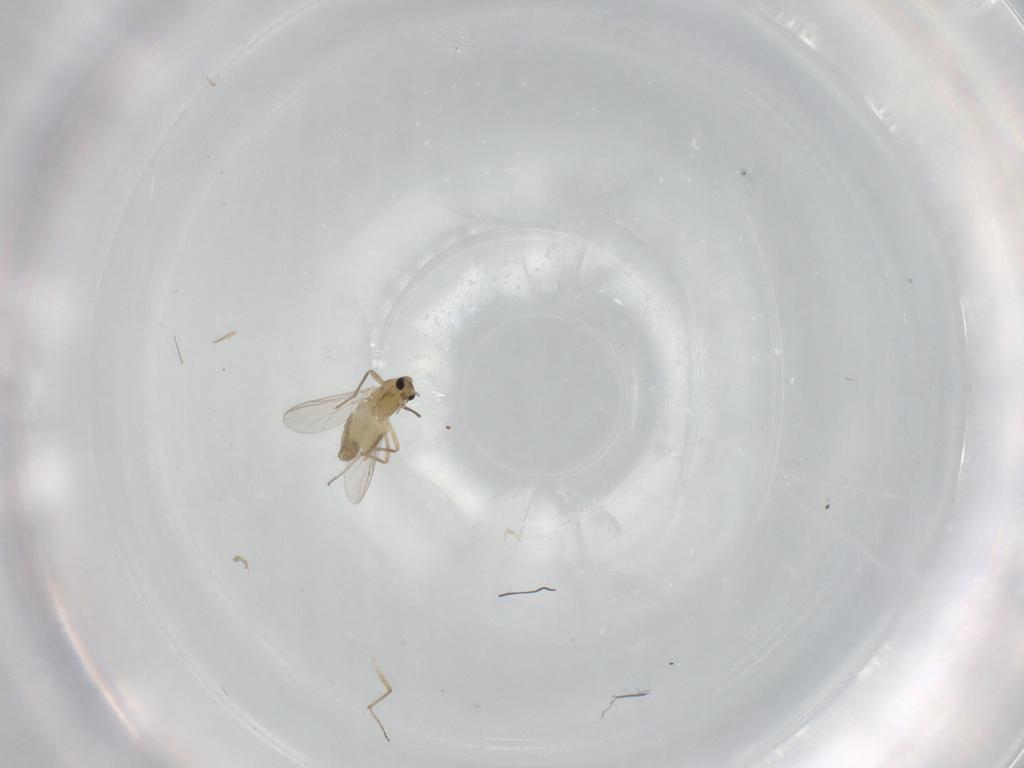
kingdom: Animalia
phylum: Arthropoda
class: Insecta
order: Diptera
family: Chironomidae
